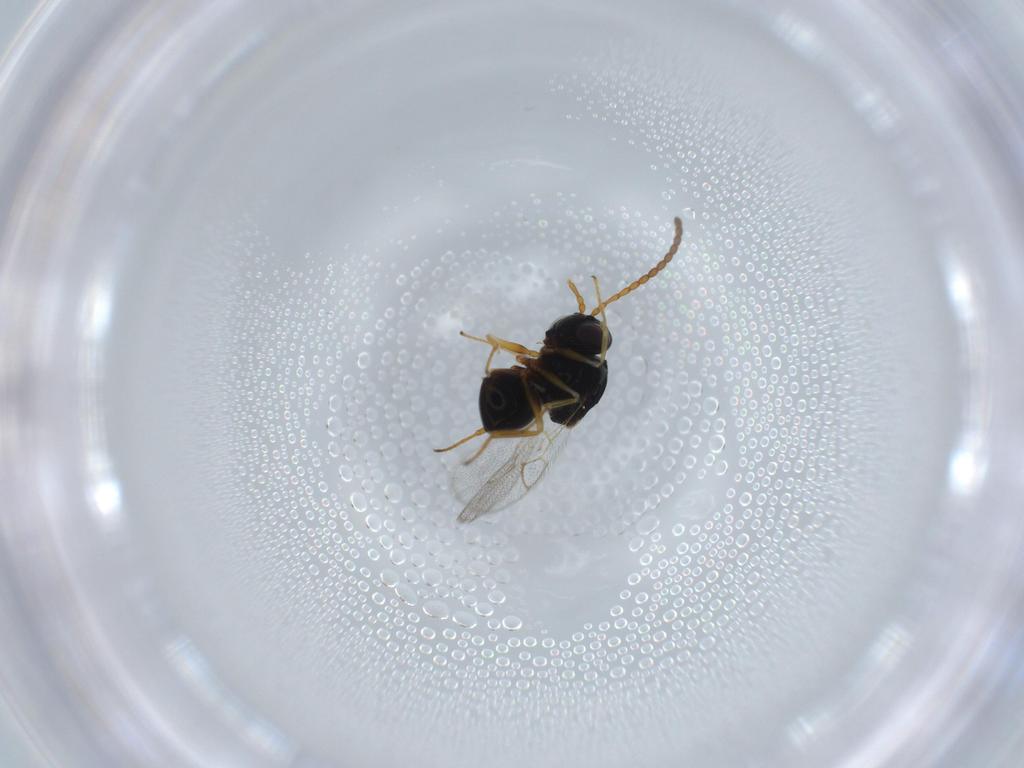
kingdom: Animalia
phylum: Arthropoda
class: Insecta
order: Hymenoptera
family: Figitidae
